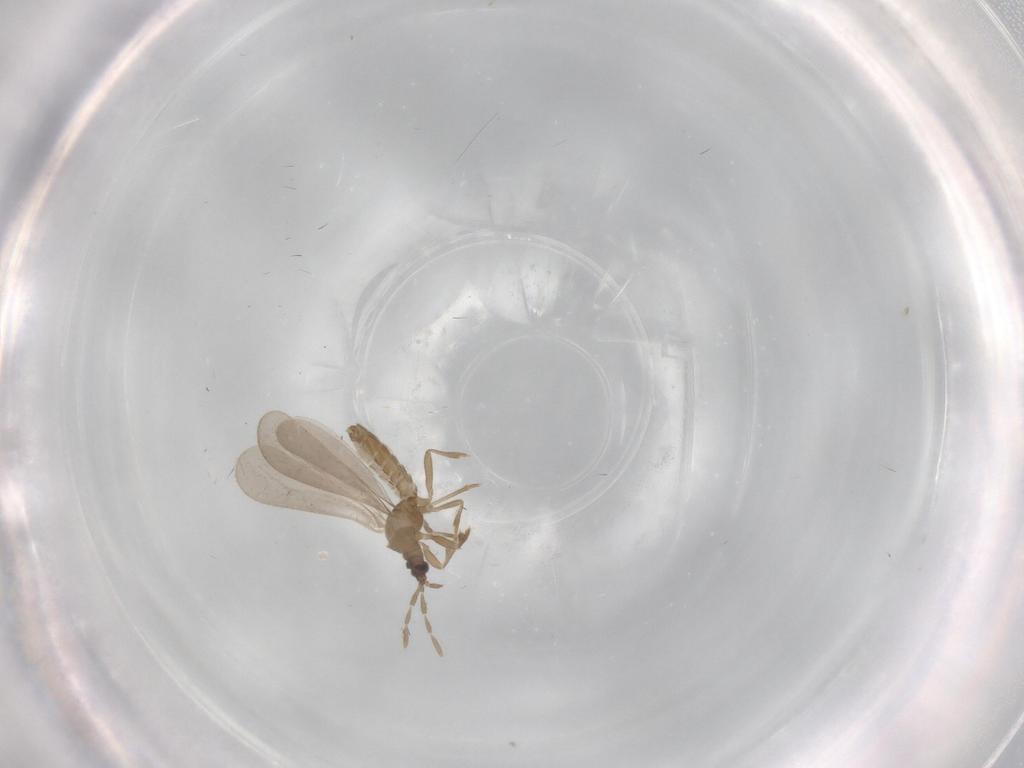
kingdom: Animalia
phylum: Arthropoda
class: Insecta
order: Hemiptera
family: Enicocephalidae
